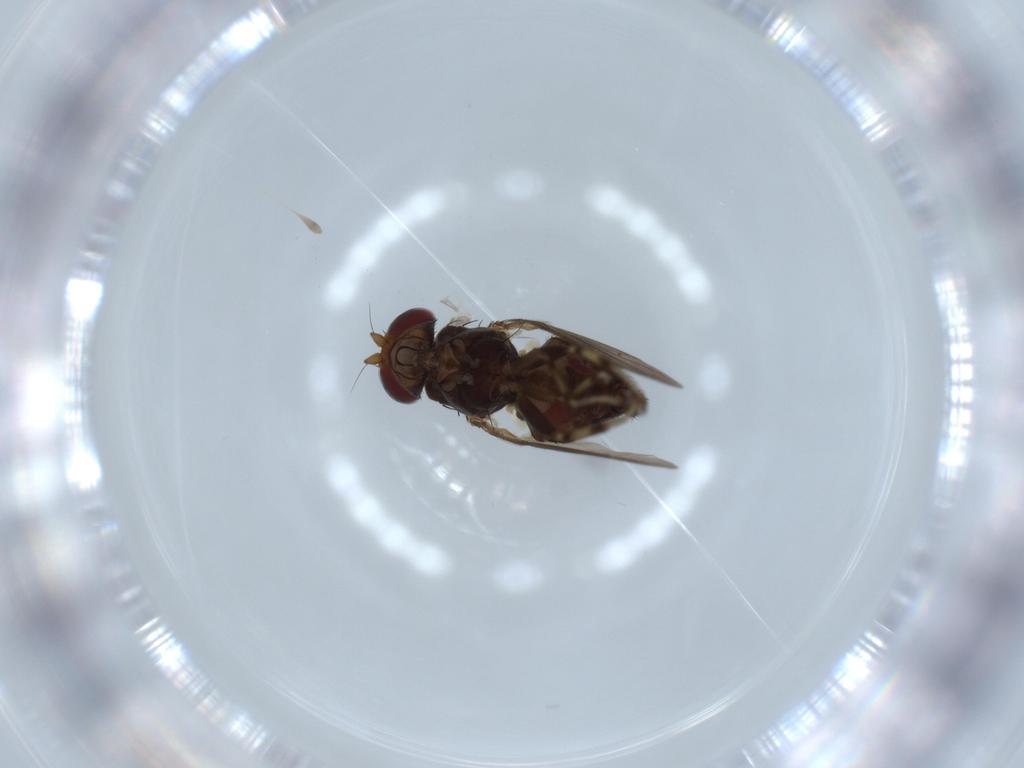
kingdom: Animalia
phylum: Arthropoda
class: Insecta
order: Diptera
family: Heleomyzidae
